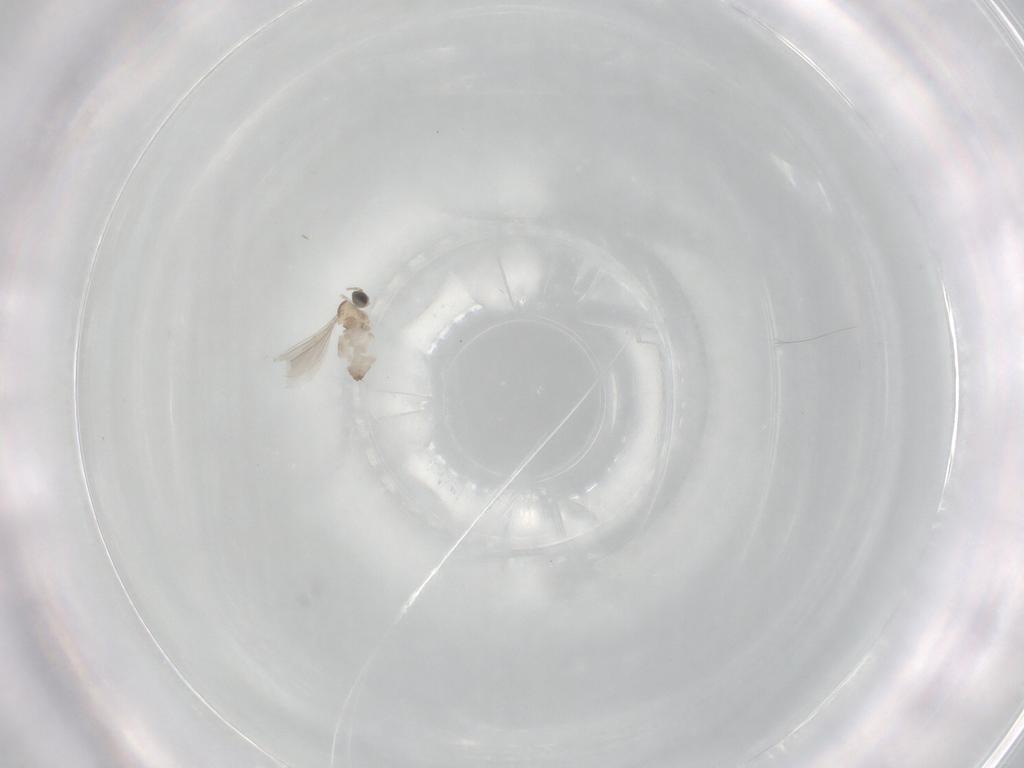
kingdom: Animalia
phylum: Arthropoda
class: Insecta
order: Diptera
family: Cecidomyiidae
